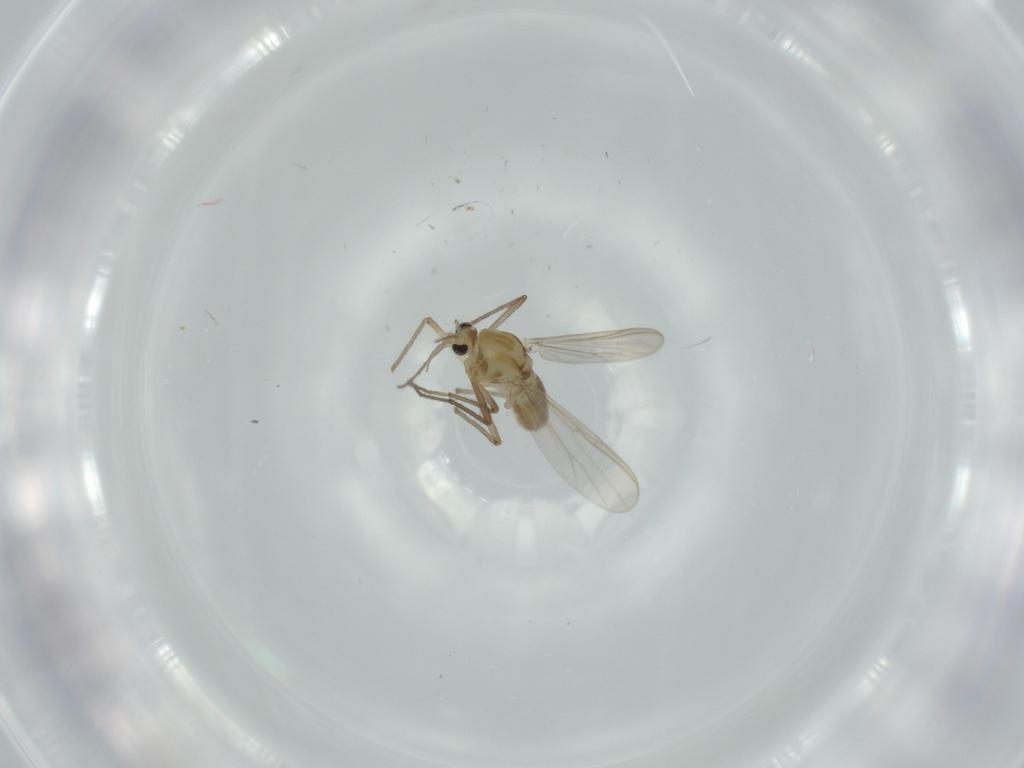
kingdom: Animalia
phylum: Arthropoda
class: Insecta
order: Diptera
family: Chironomidae
